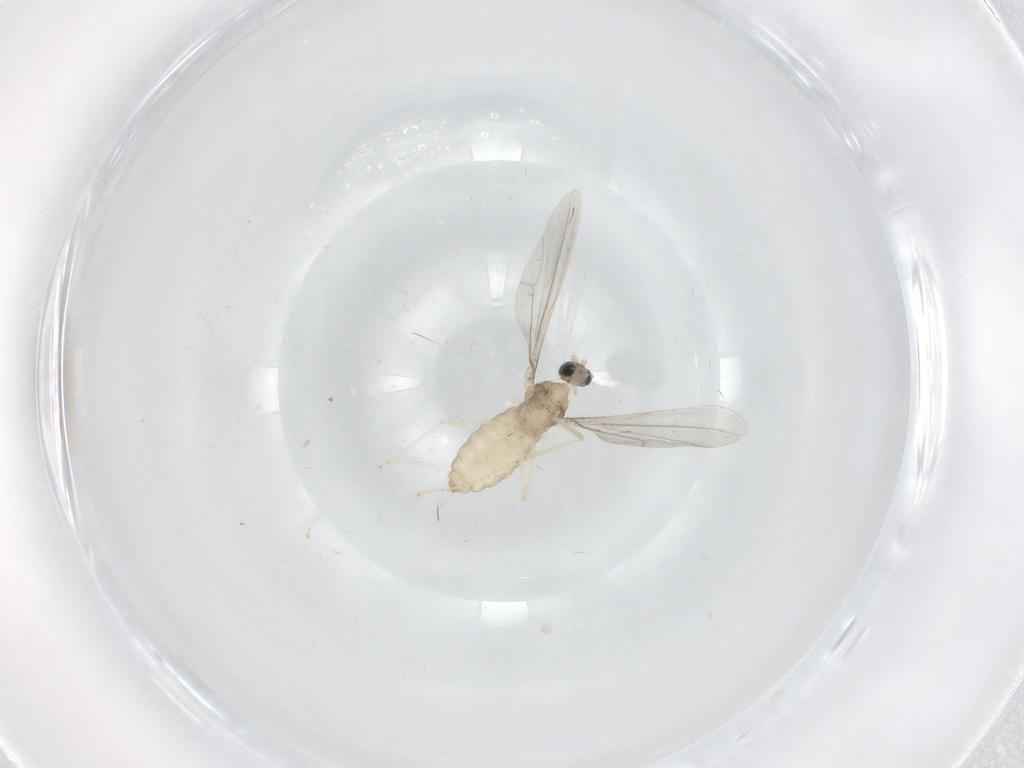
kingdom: Animalia
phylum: Arthropoda
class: Insecta
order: Diptera
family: Cecidomyiidae
